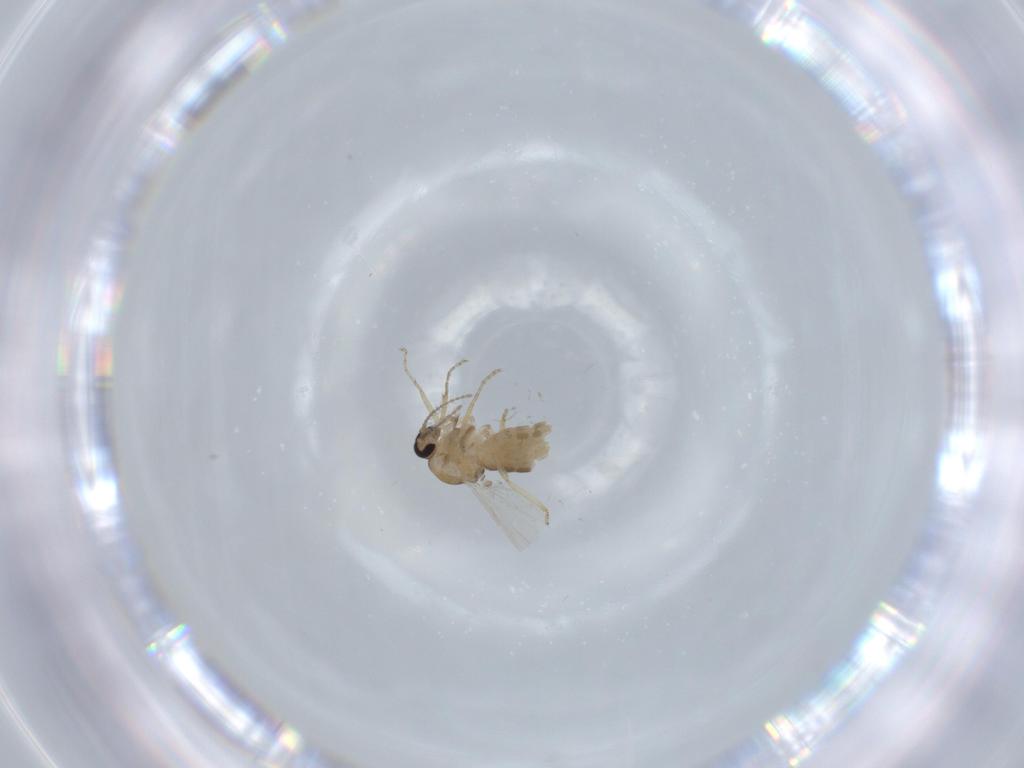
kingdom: Animalia
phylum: Arthropoda
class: Insecta
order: Diptera
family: Ceratopogonidae
